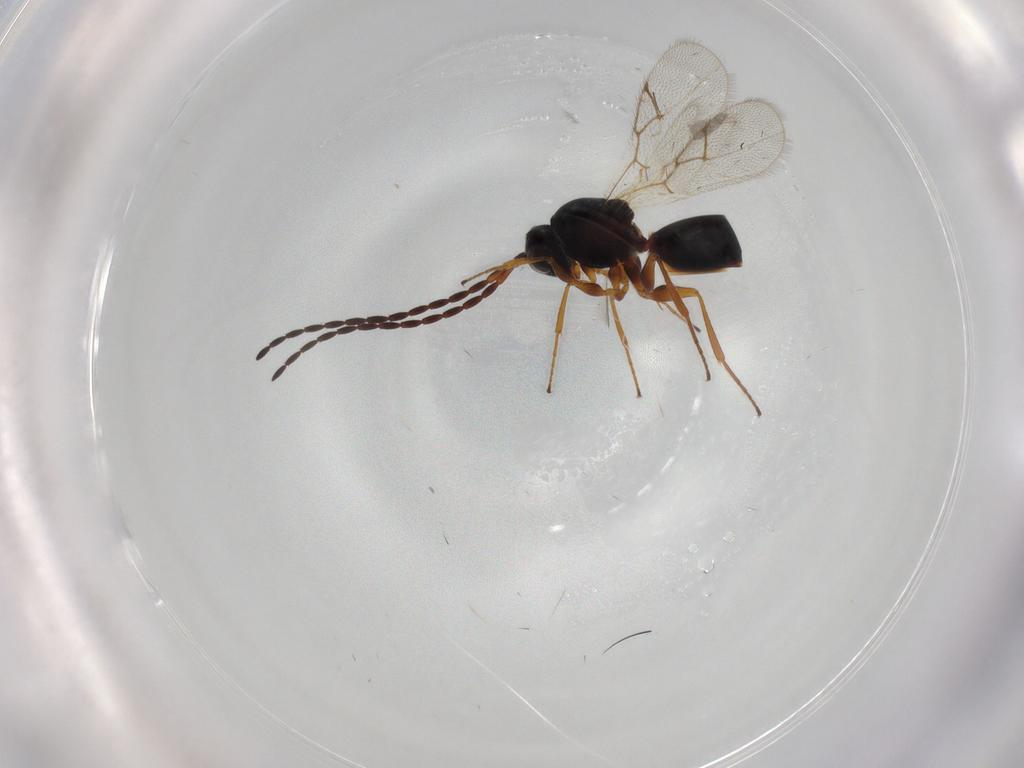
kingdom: Animalia
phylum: Arthropoda
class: Insecta
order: Hymenoptera
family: Figitidae
